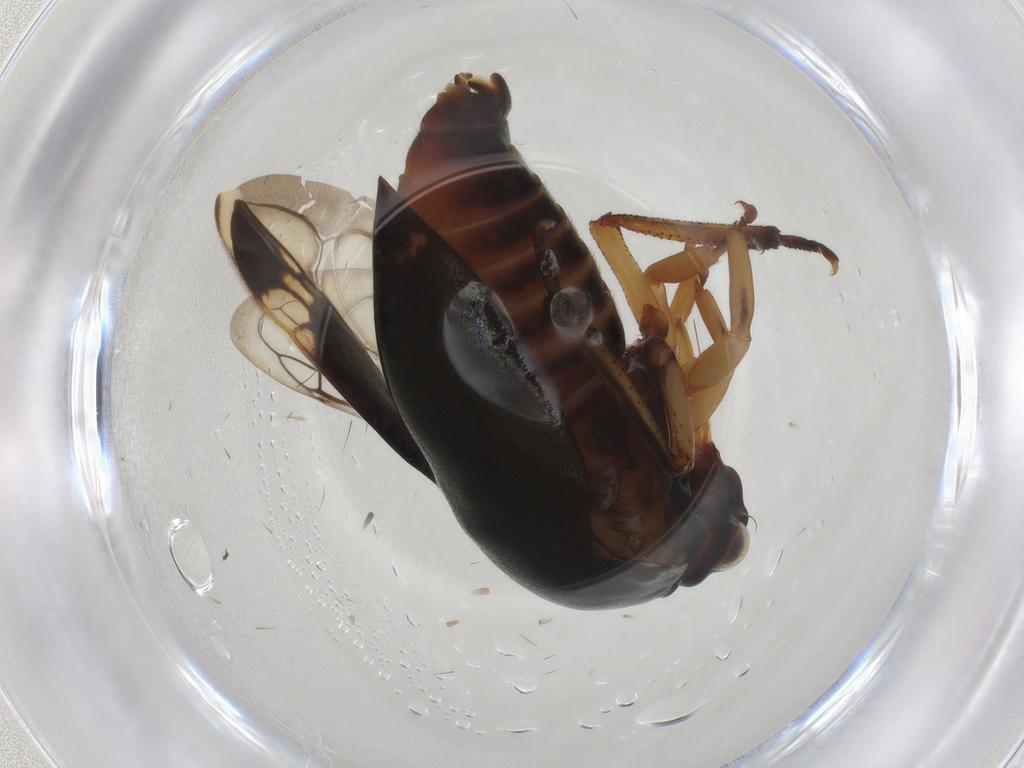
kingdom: Animalia
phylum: Arthropoda
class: Insecta
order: Hemiptera
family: Membracidae
